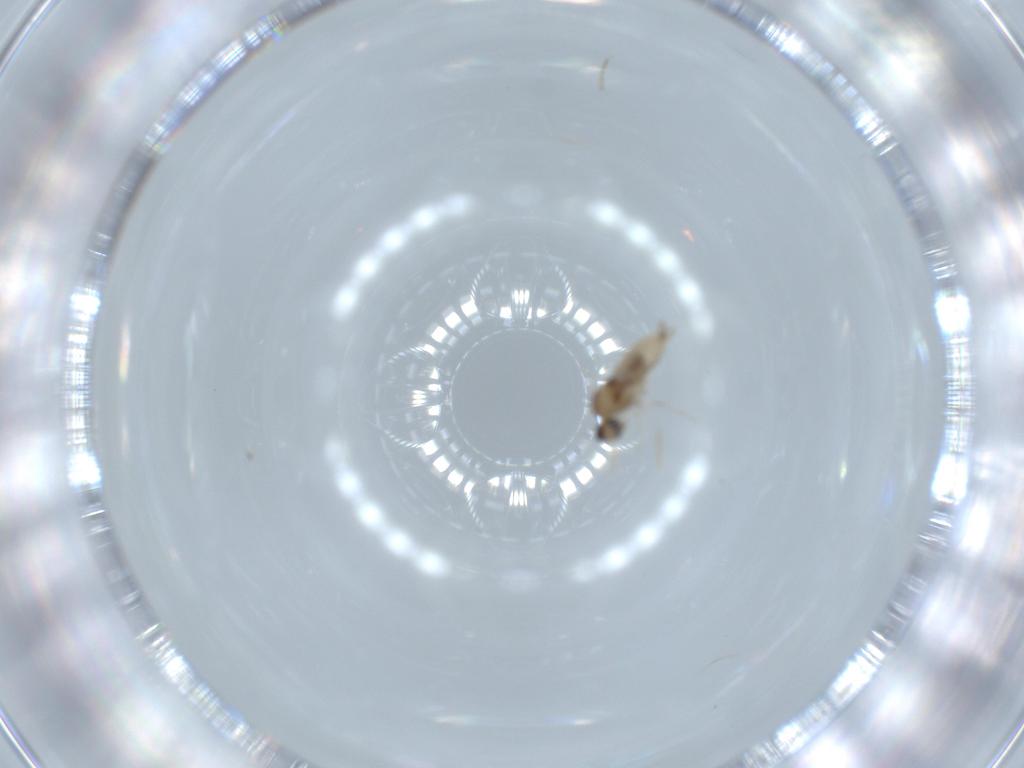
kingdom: Animalia
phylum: Arthropoda
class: Insecta
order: Diptera
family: Cecidomyiidae
